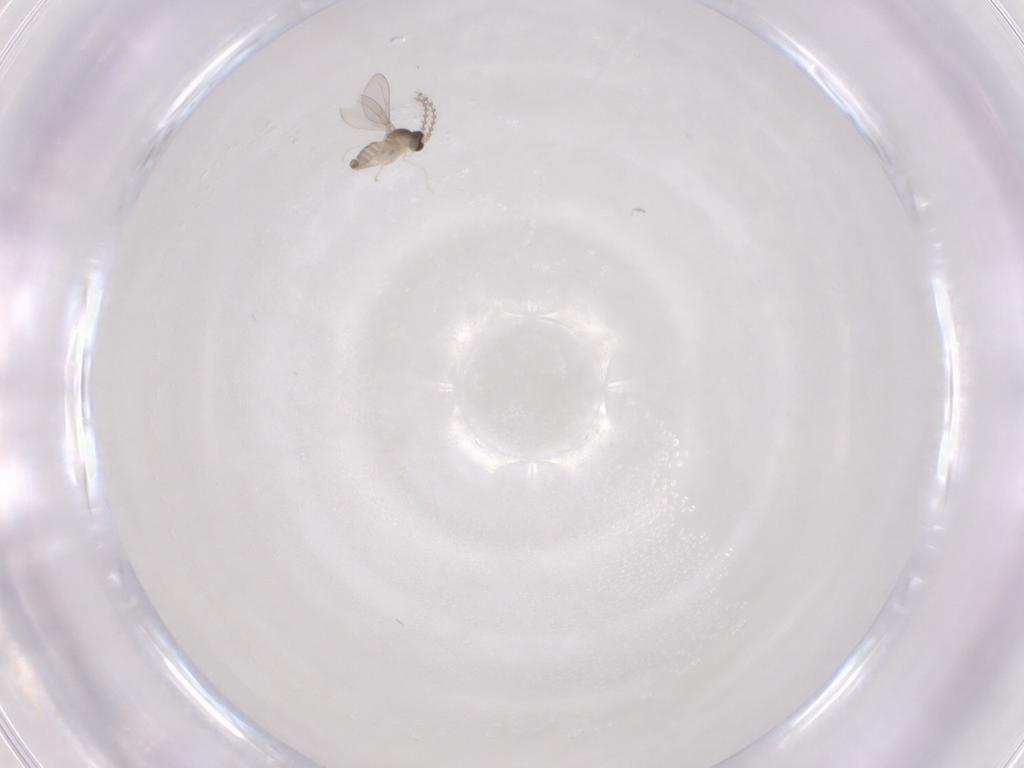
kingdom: Animalia
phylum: Arthropoda
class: Insecta
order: Diptera
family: Cecidomyiidae
